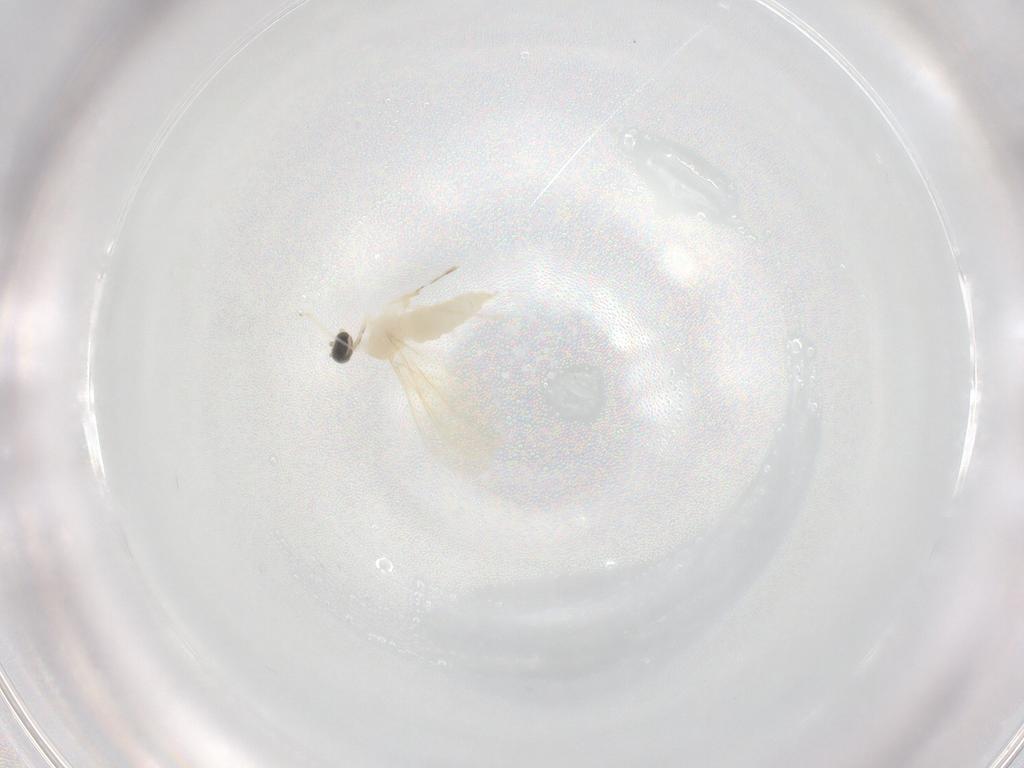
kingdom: Animalia
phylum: Arthropoda
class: Insecta
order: Diptera
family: Cecidomyiidae
